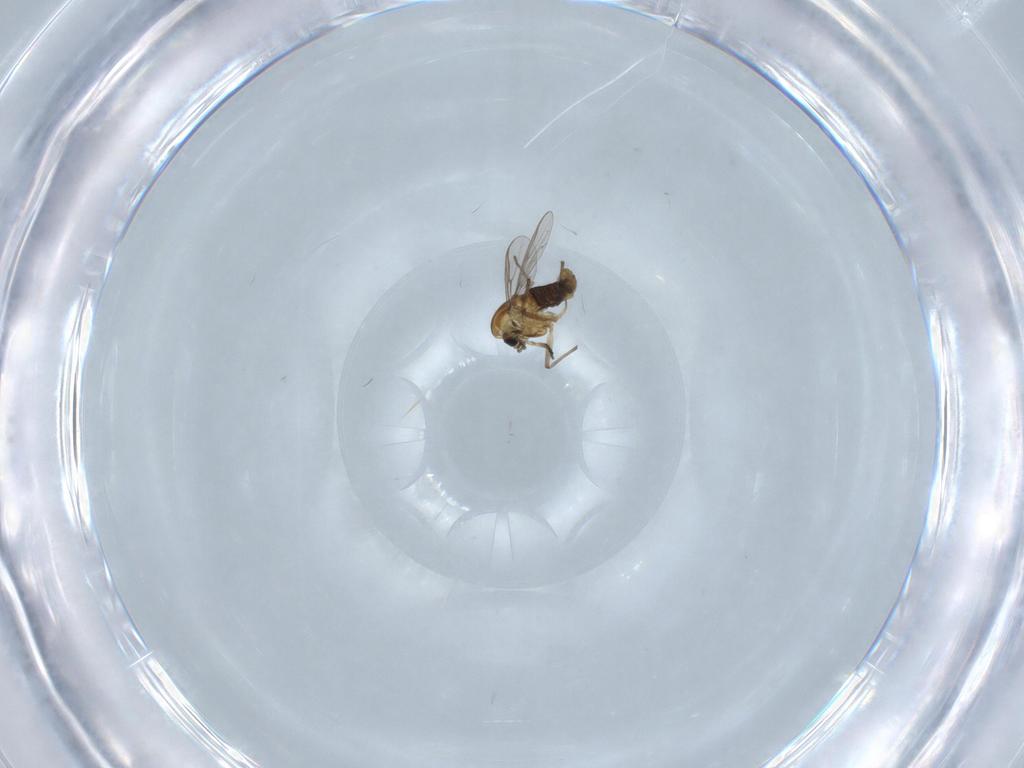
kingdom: Animalia
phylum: Arthropoda
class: Insecta
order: Diptera
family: Chironomidae
